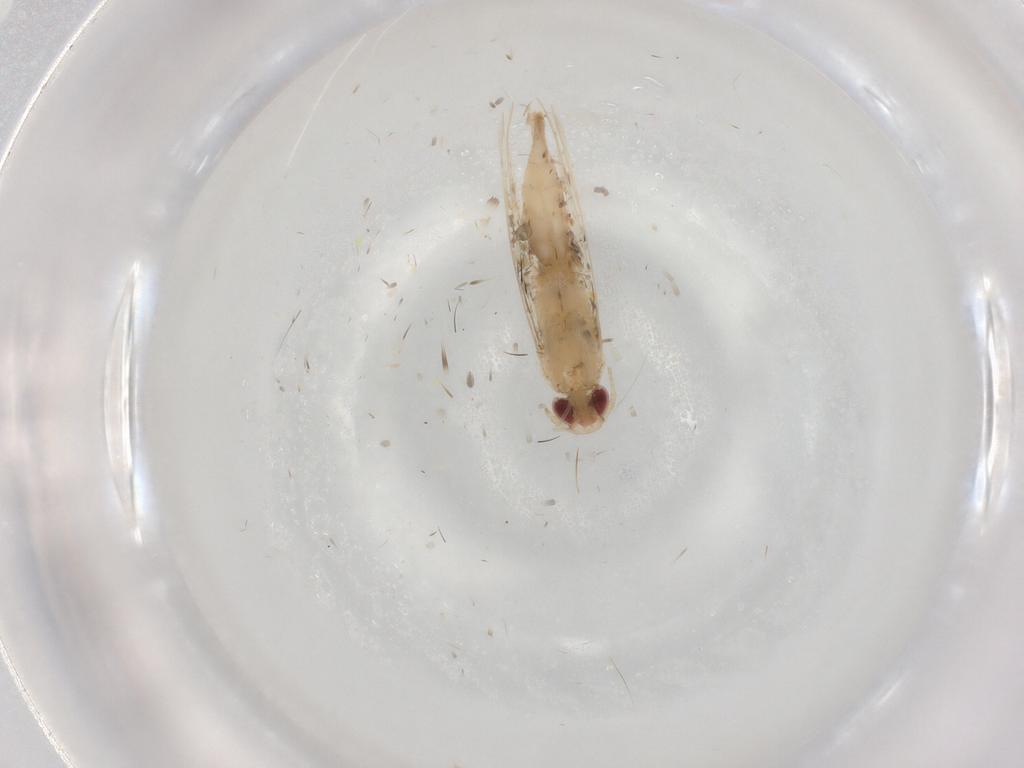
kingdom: Animalia
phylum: Arthropoda
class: Insecta
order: Lepidoptera
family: Gracillariidae
